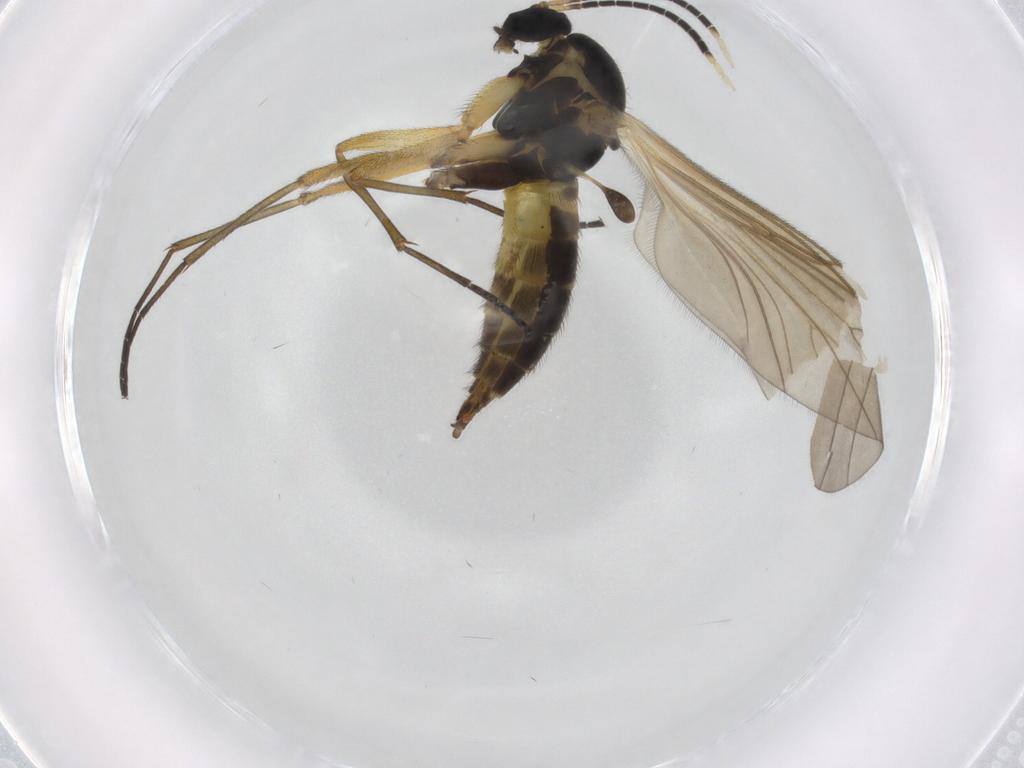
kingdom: Animalia
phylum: Arthropoda
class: Insecta
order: Diptera
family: Sciaridae
